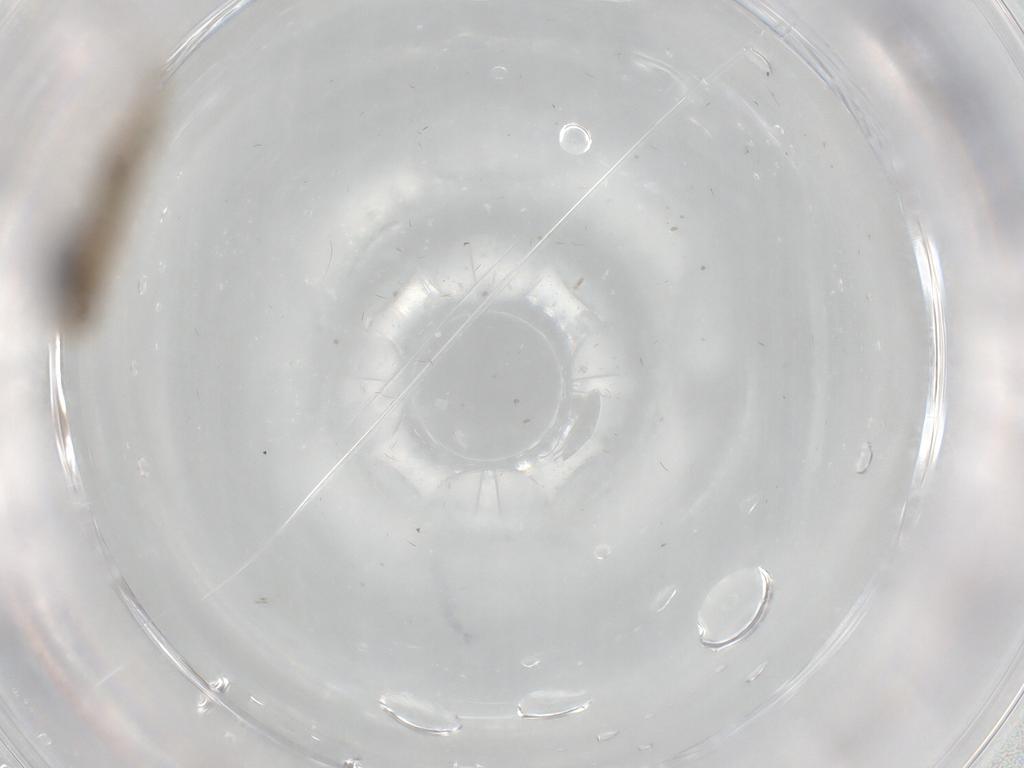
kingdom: Animalia
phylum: Arthropoda
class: Insecta
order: Lepidoptera
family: Gracillariidae
